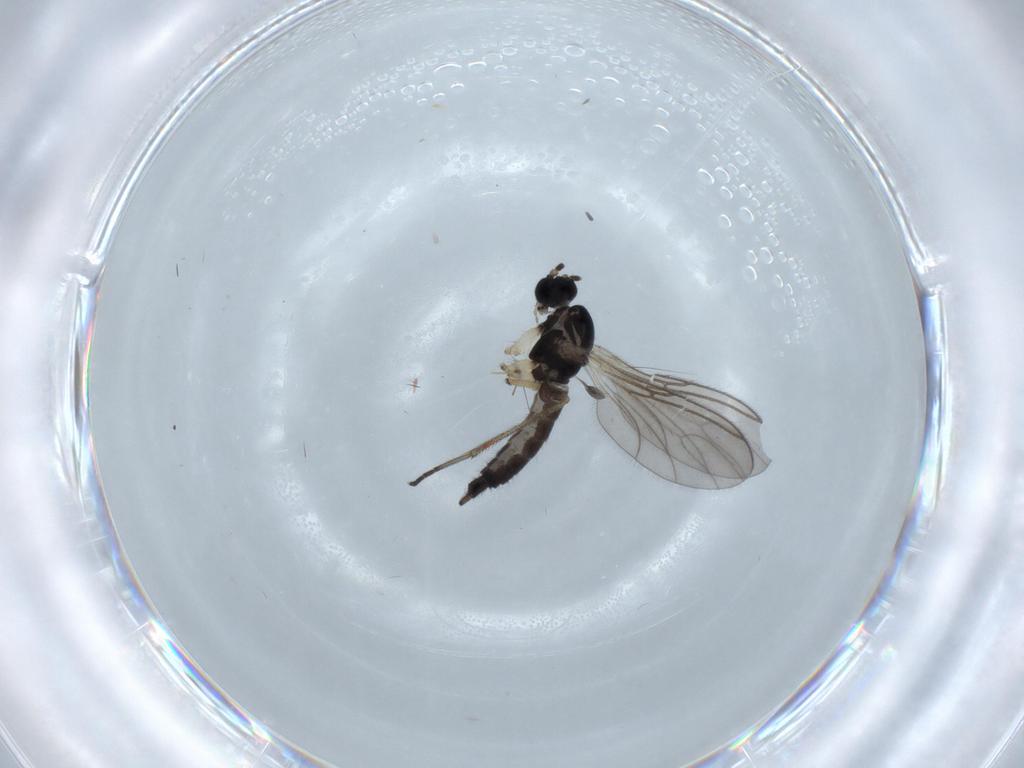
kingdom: Animalia
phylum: Arthropoda
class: Insecta
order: Diptera
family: Sciaridae
